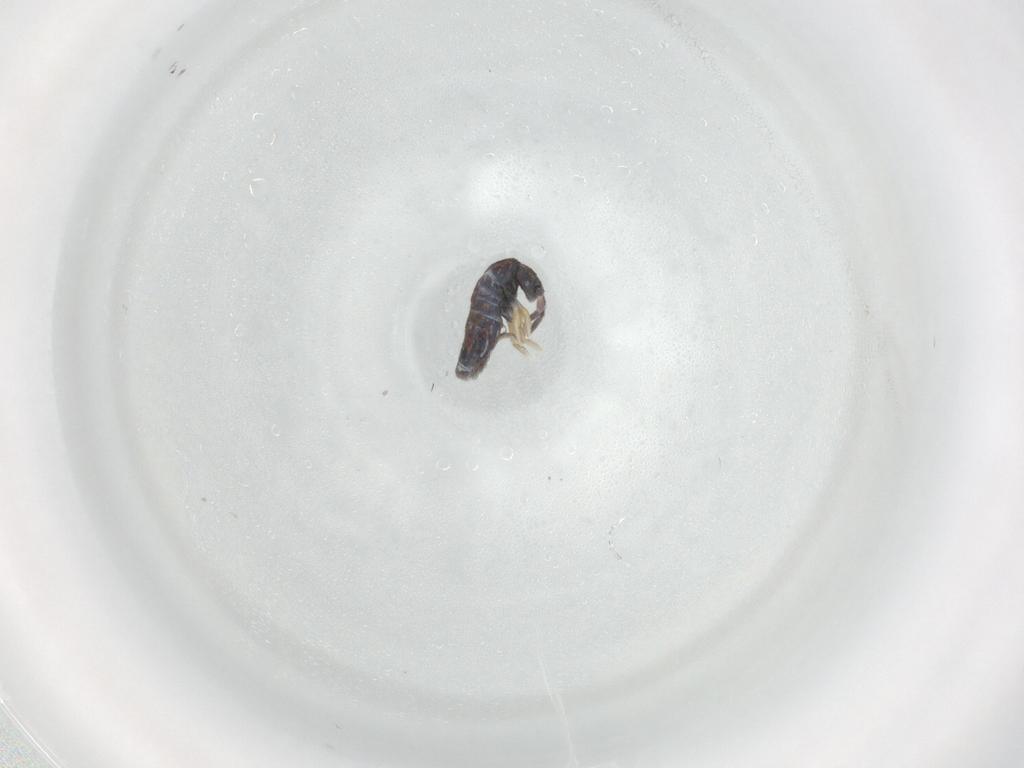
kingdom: Animalia
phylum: Arthropoda
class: Collembola
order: Entomobryomorpha
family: Entomobryidae
